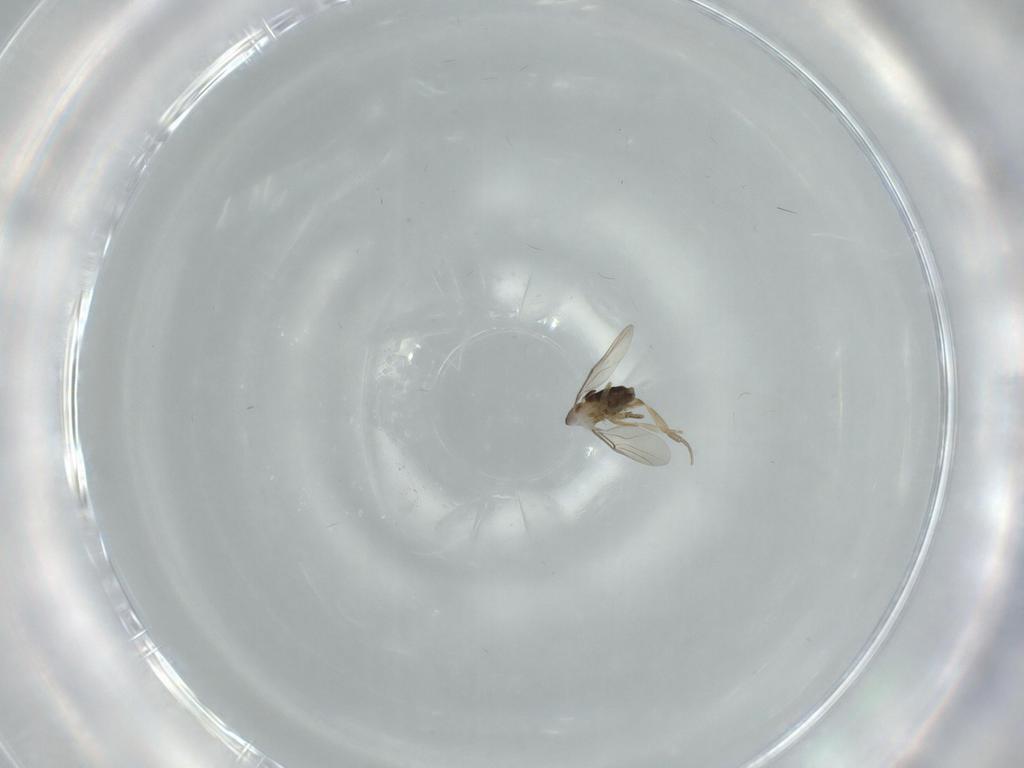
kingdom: Animalia
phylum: Arthropoda
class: Insecta
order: Diptera
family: Phoridae
